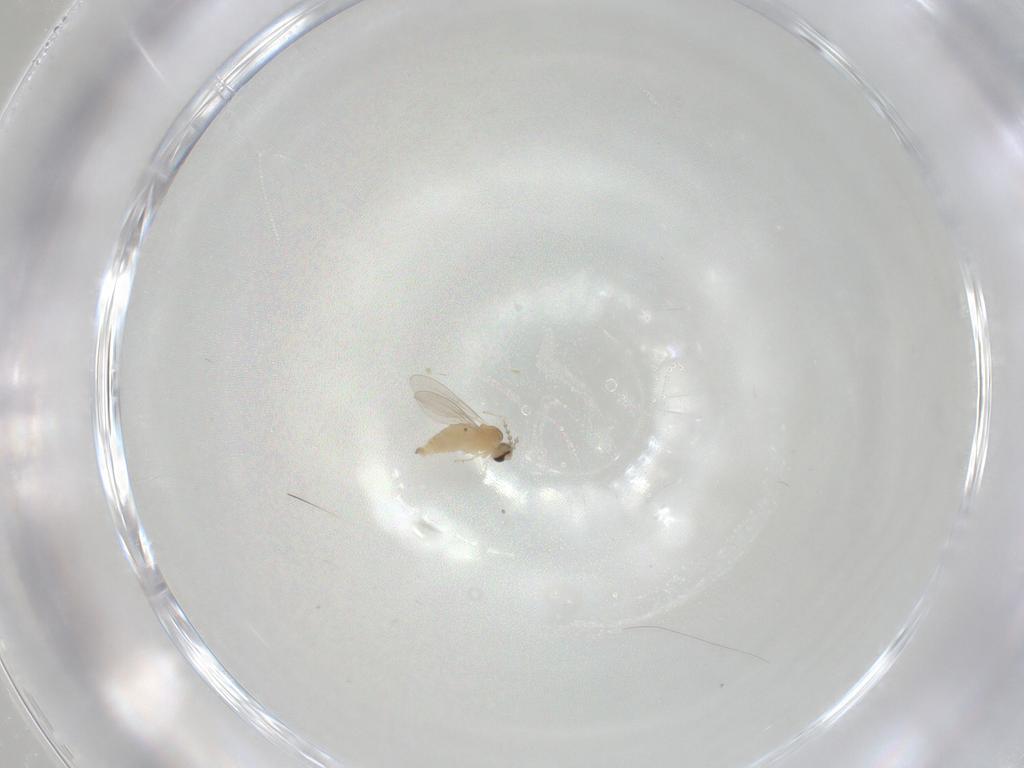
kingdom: Animalia
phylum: Arthropoda
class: Insecta
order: Diptera
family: Cecidomyiidae
